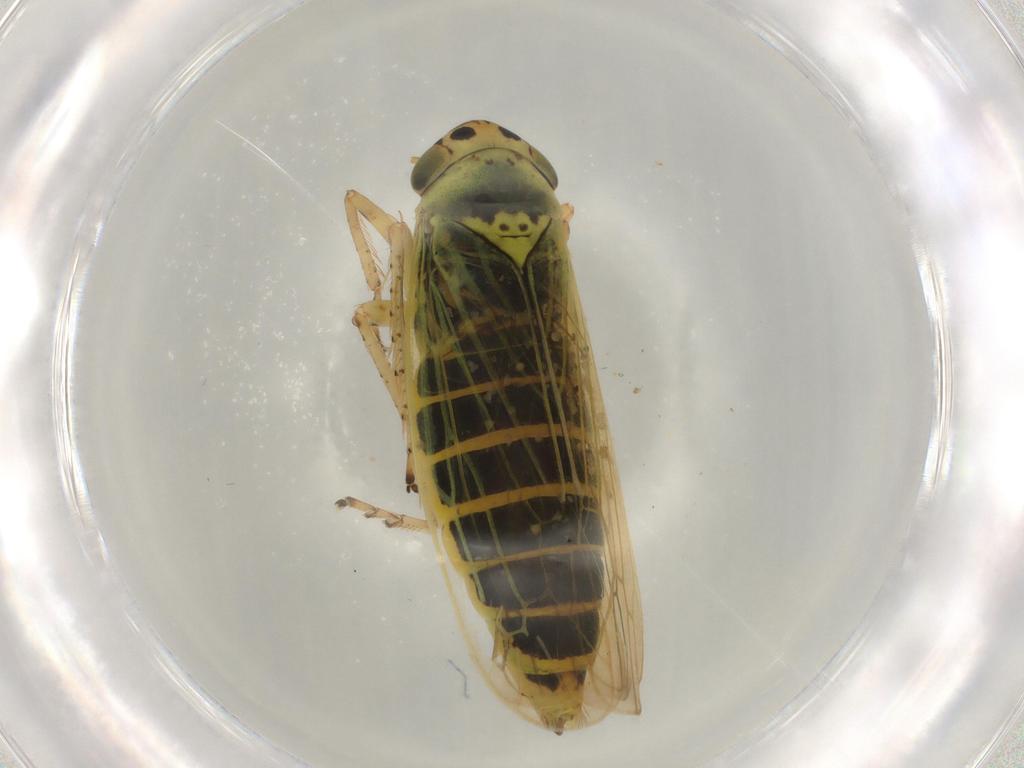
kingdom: Animalia
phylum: Arthropoda
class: Insecta
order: Hemiptera
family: Cicadellidae
